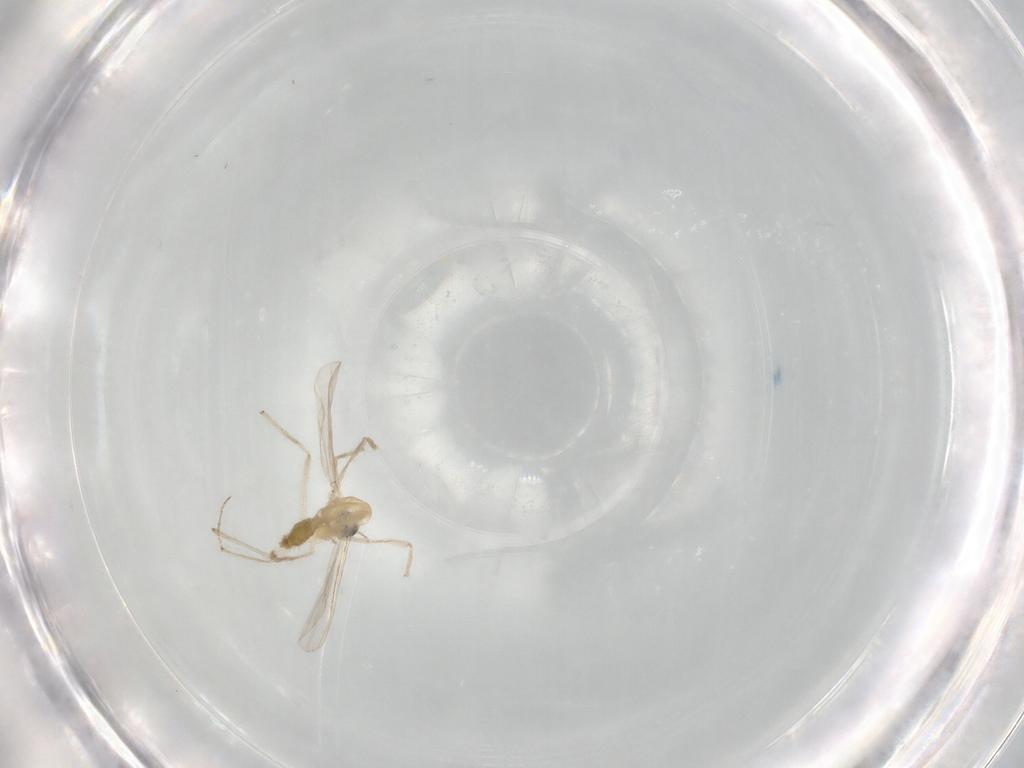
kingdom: Animalia
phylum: Arthropoda
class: Insecta
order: Diptera
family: Chironomidae
